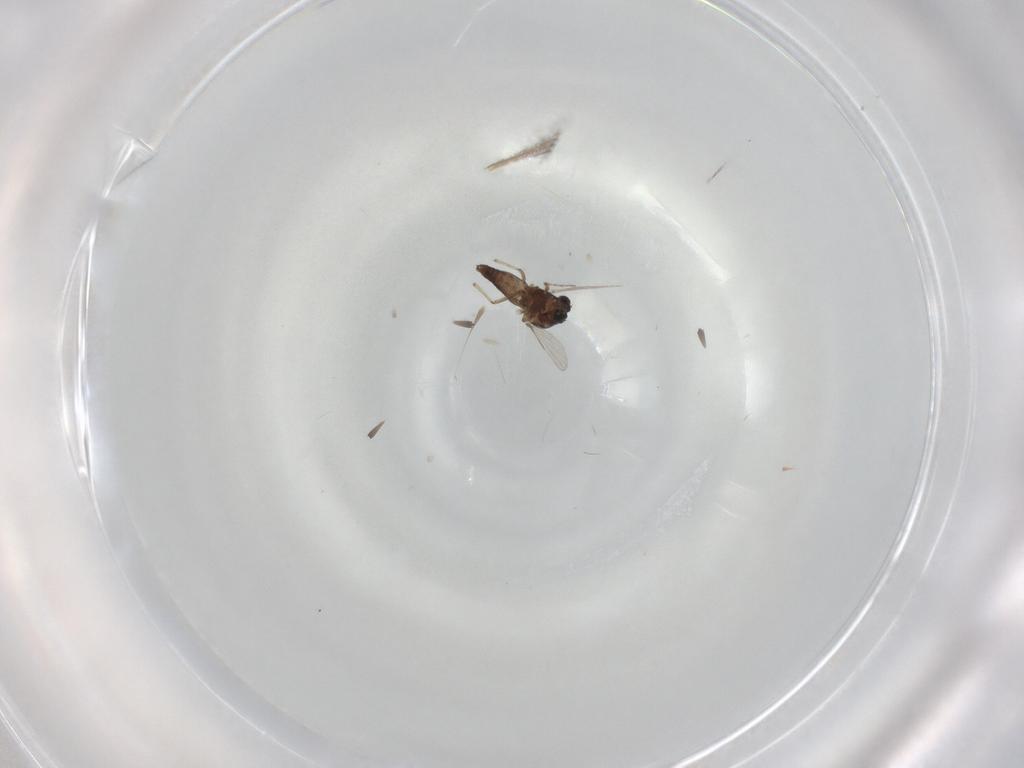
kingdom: Animalia
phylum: Arthropoda
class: Insecta
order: Diptera
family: Ceratopogonidae
